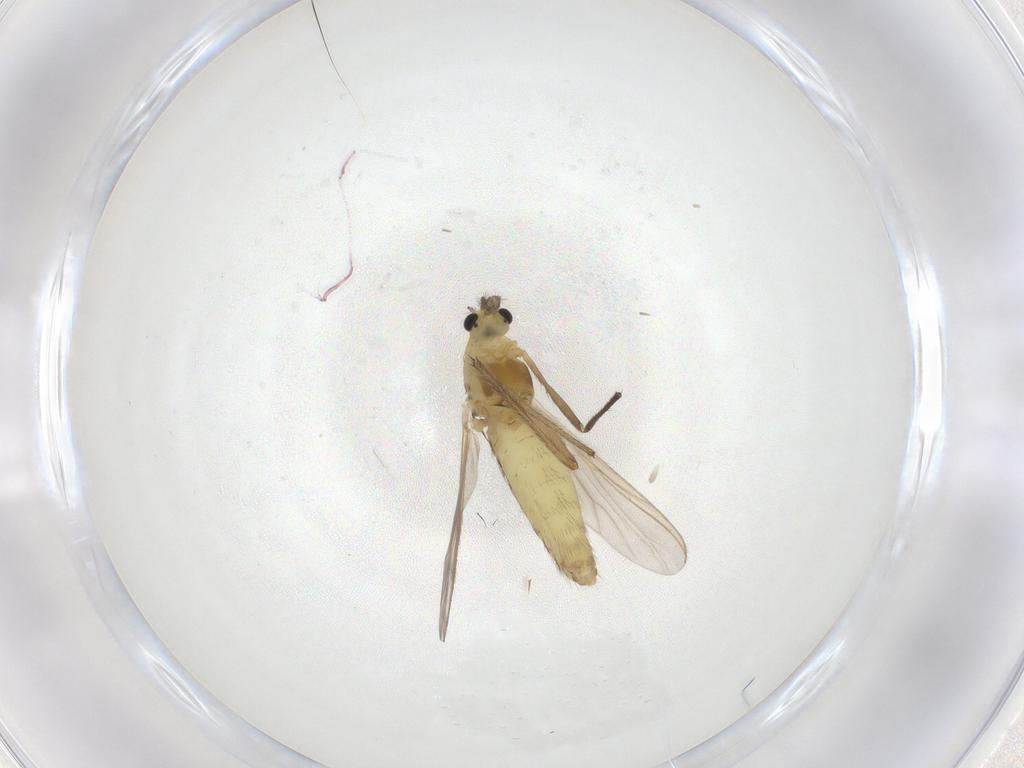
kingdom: Animalia
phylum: Arthropoda
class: Insecta
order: Diptera
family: Chironomidae
